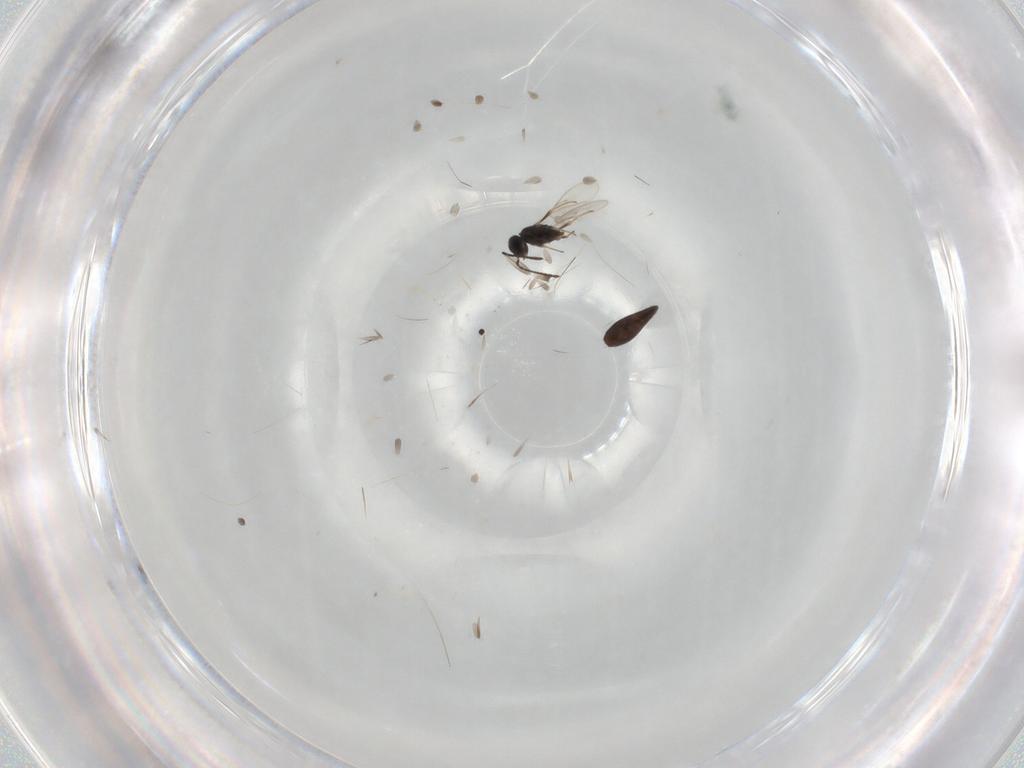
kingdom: Animalia
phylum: Arthropoda
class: Insecta
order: Hymenoptera
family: Scelionidae
